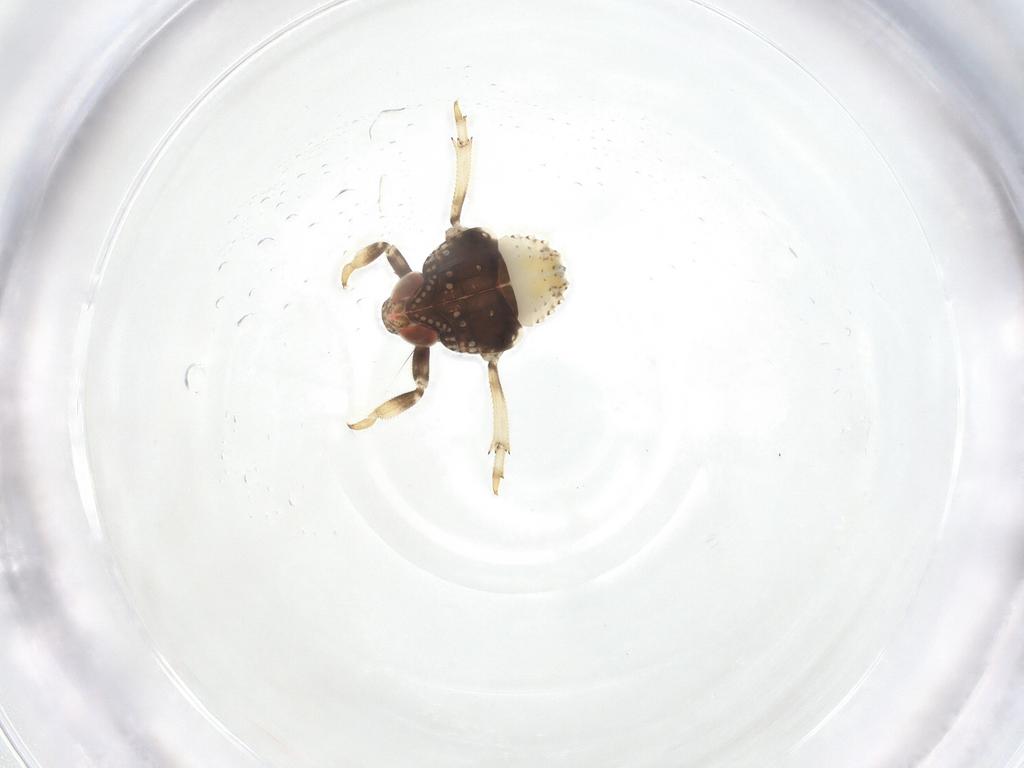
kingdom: Animalia
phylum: Arthropoda
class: Insecta
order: Hemiptera
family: Issidae
